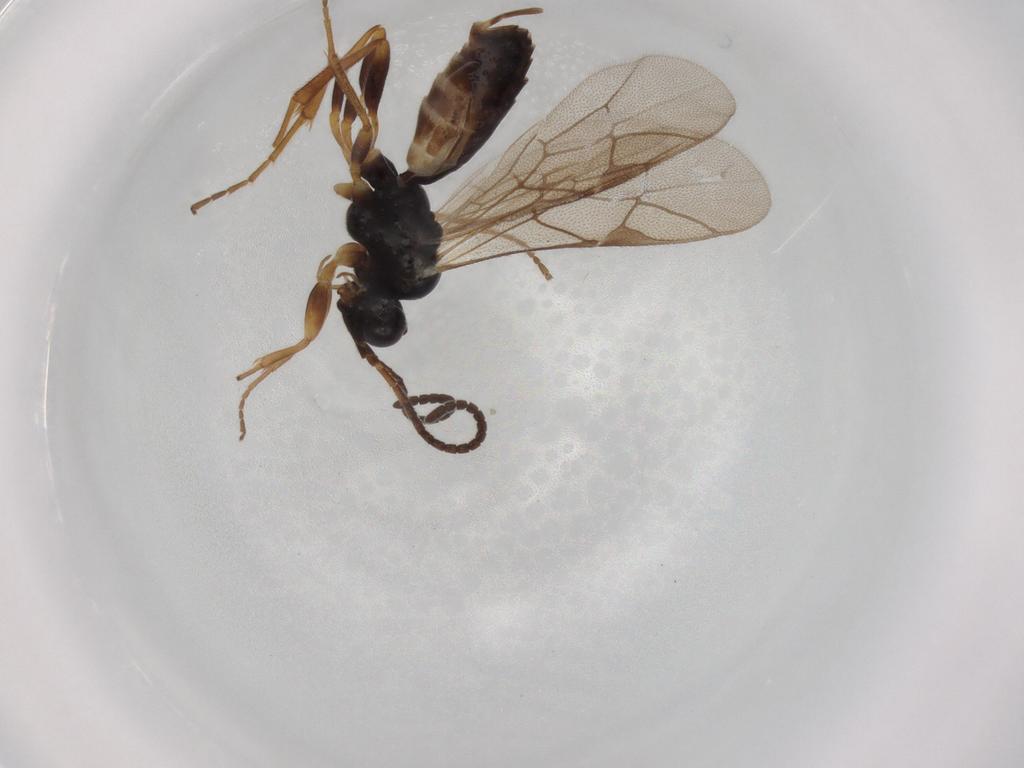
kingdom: Animalia
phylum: Arthropoda
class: Insecta
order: Hymenoptera
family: Ichneumonidae
